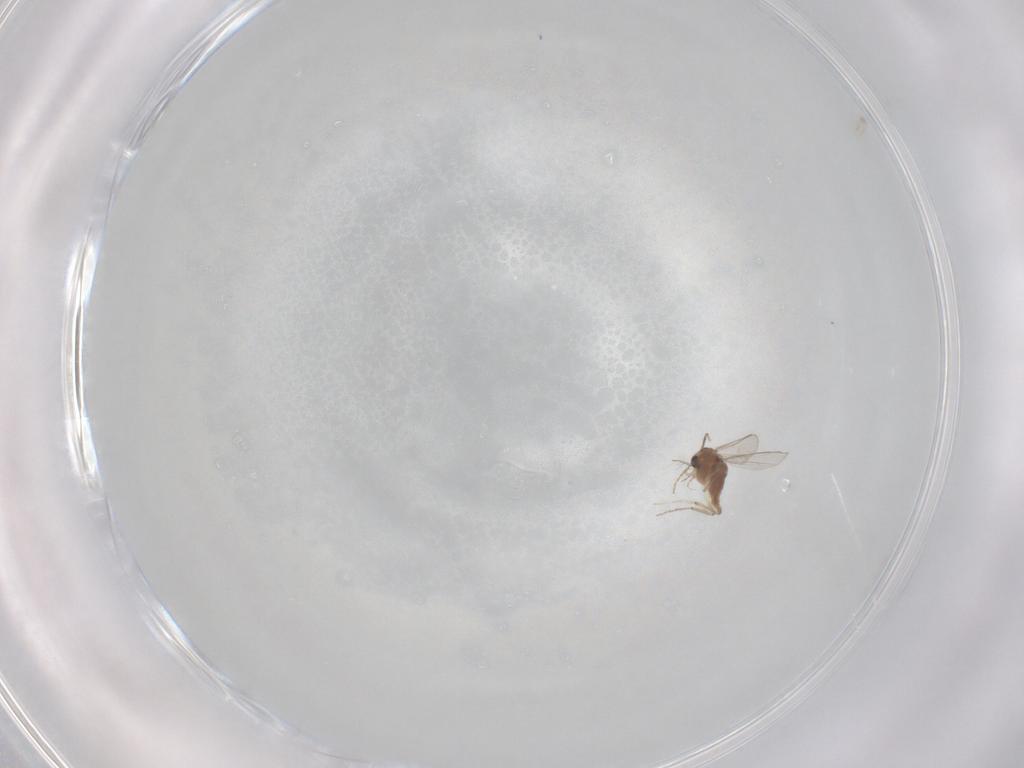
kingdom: Animalia
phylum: Arthropoda
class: Insecta
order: Diptera
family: Chironomidae
